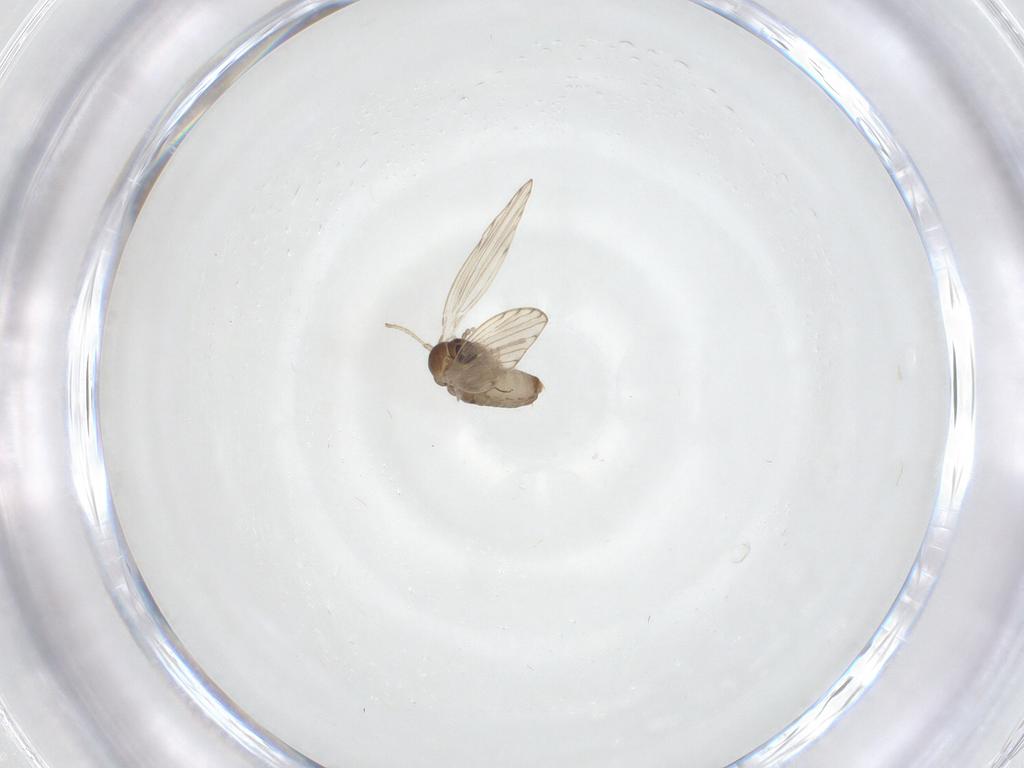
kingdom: Animalia
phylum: Arthropoda
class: Insecta
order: Diptera
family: Psychodidae
